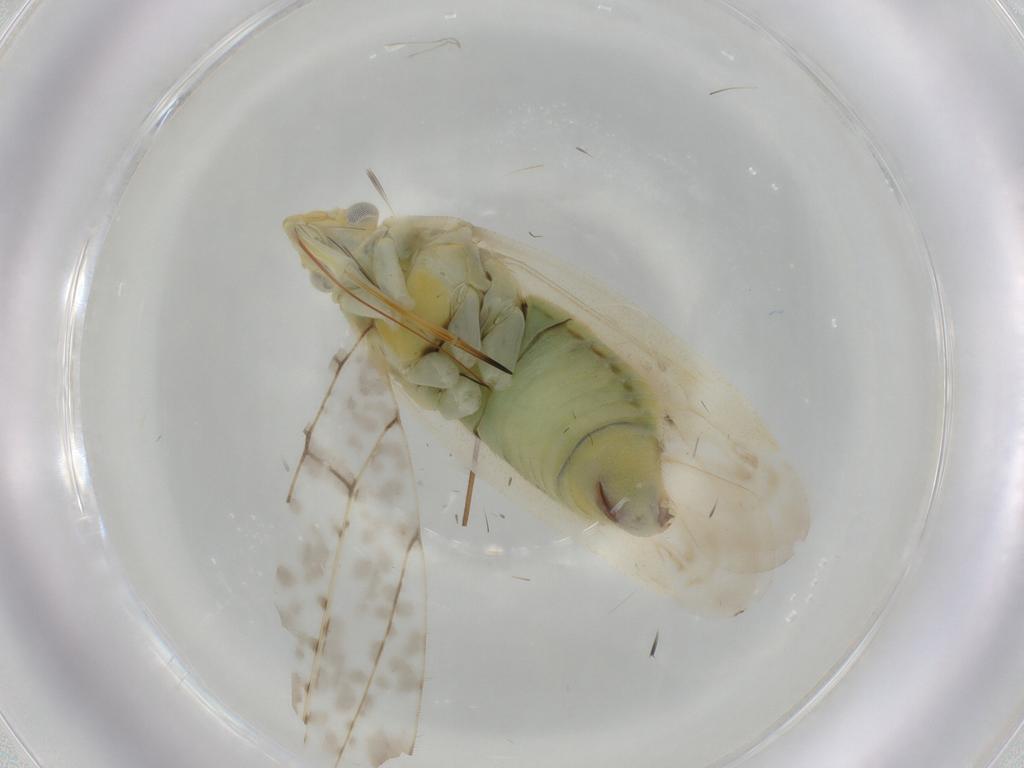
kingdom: Animalia
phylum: Arthropoda
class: Insecta
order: Hemiptera
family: Cicadellidae
